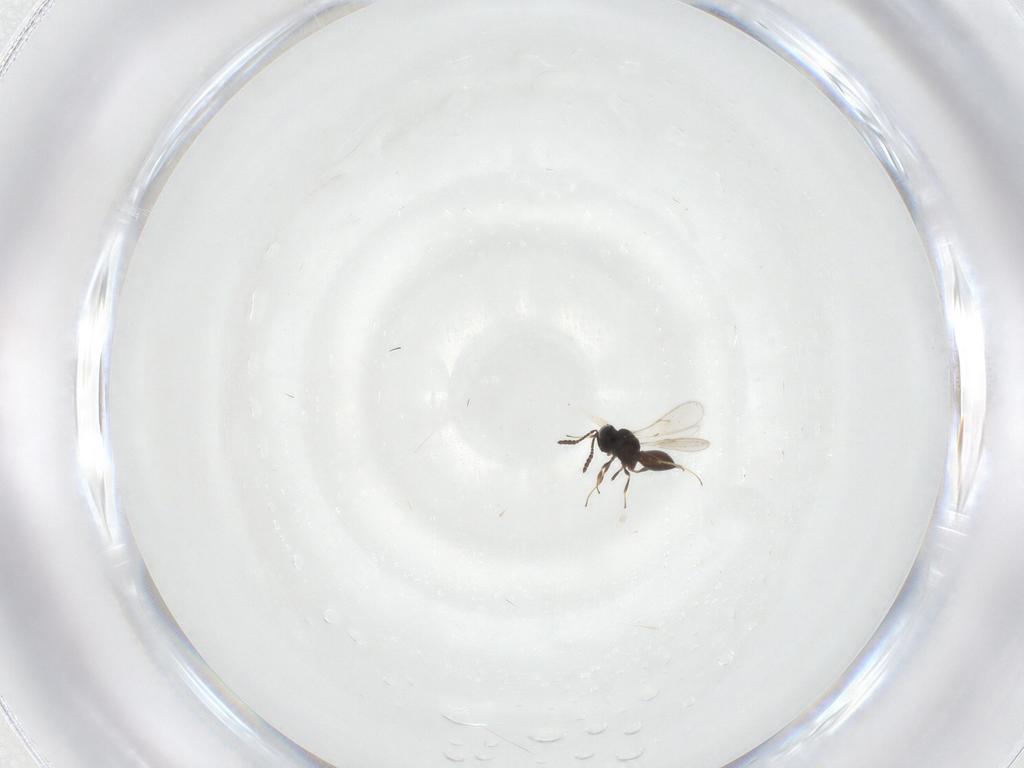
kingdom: Animalia
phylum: Arthropoda
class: Insecta
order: Hymenoptera
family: Scelionidae
